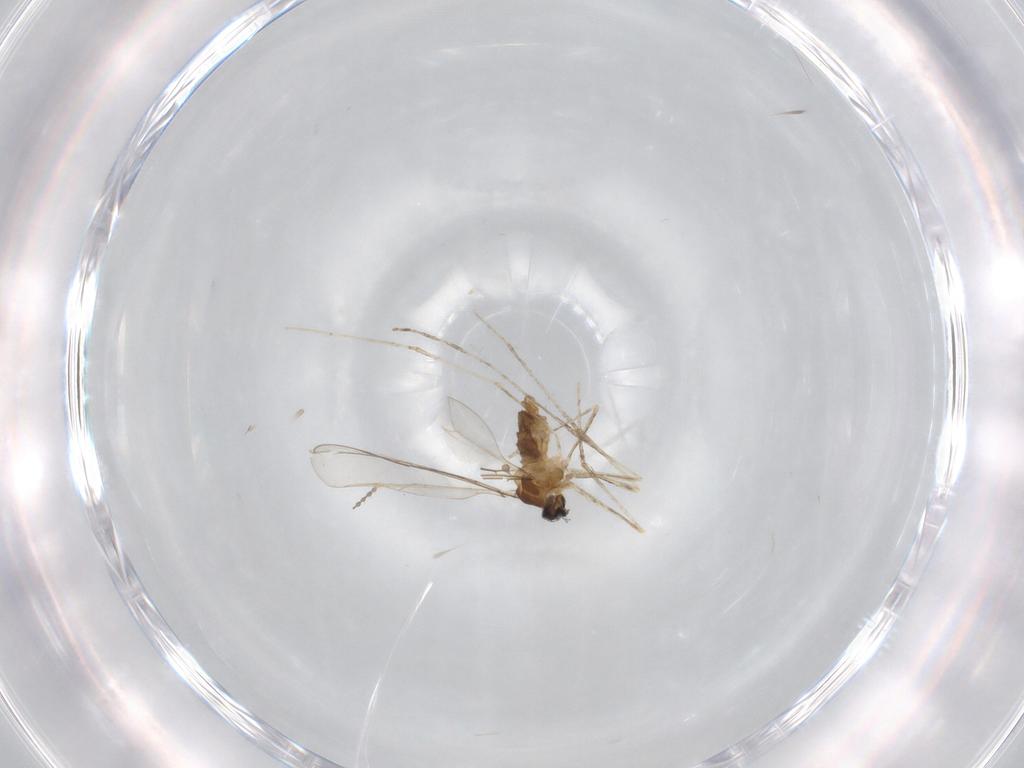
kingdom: Animalia
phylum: Arthropoda
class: Insecta
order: Diptera
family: Cecidomyiidae
